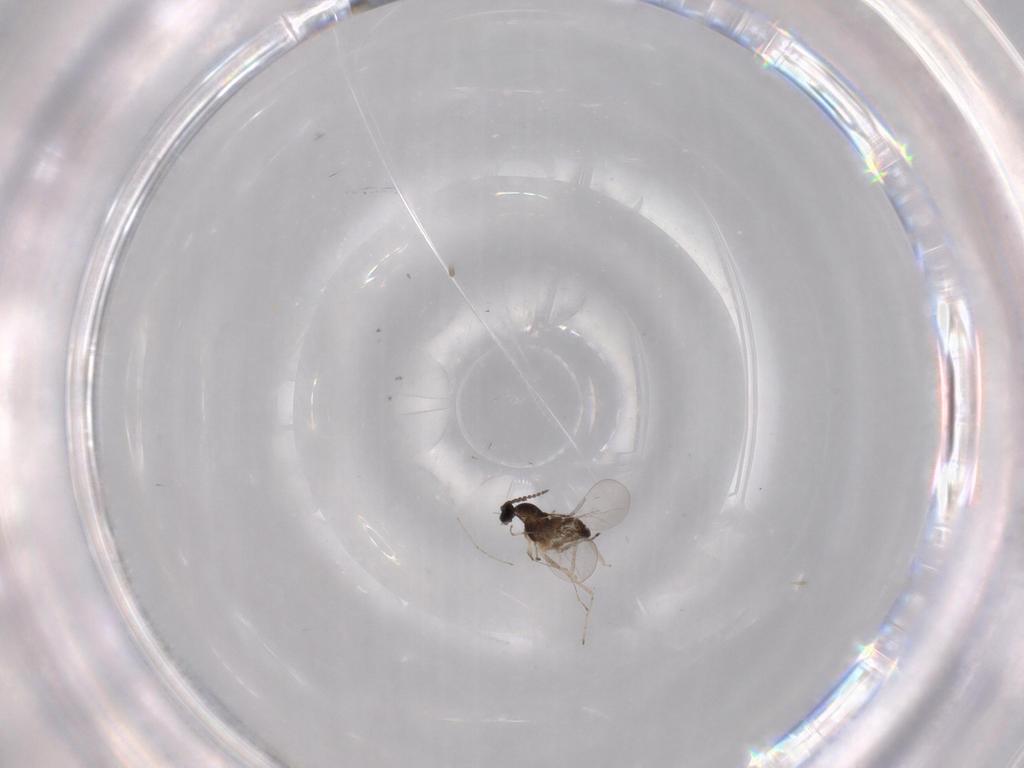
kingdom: Animalia
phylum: Arthropoda
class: Insecta
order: Diptera
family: Cecidomyiidae
